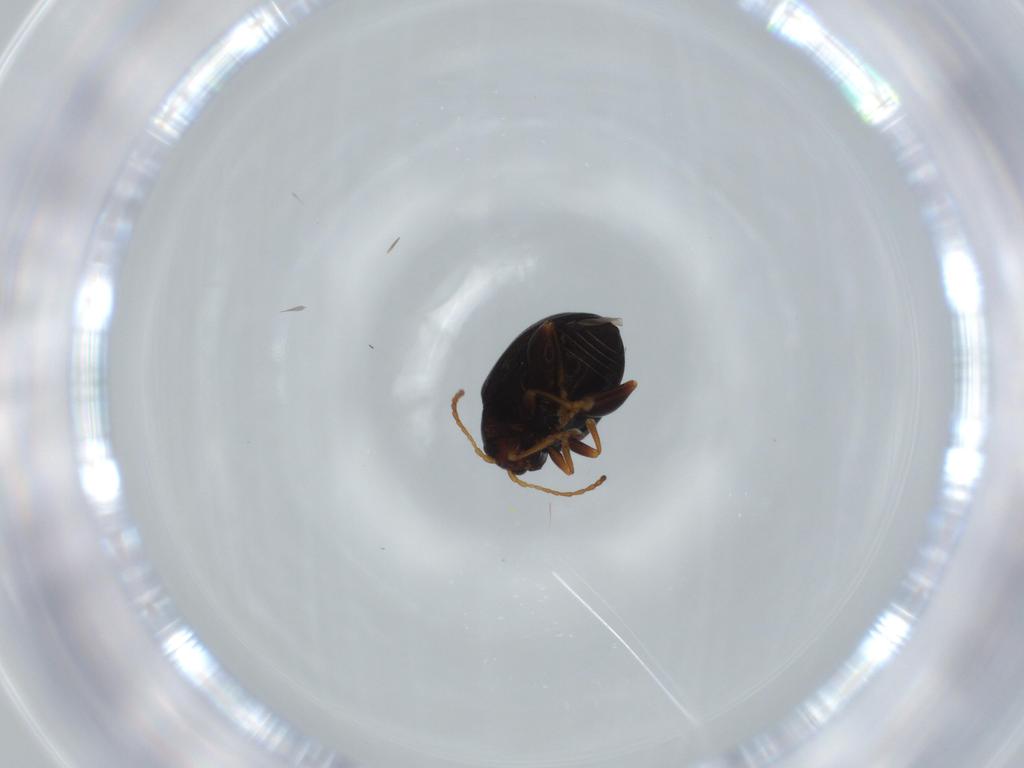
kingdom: Animalia
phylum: Arthropoda
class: Insecta
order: Coleoptera
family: Chrysomelidae
